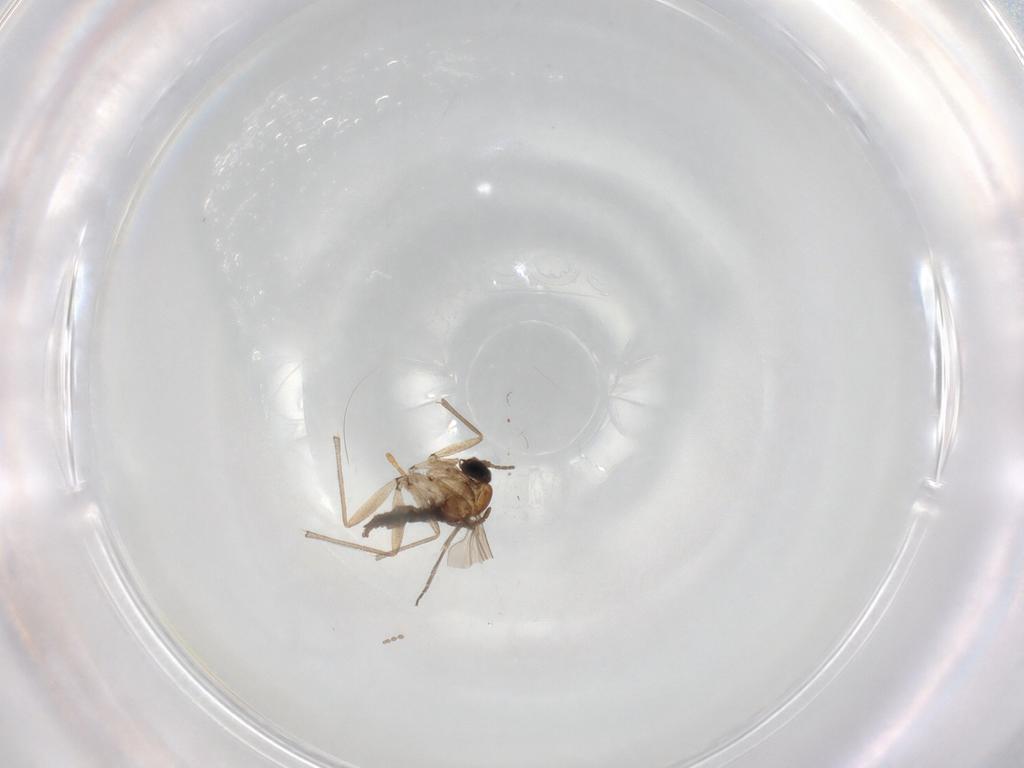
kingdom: Animalia
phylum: Arthropoda
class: Insecta
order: Diptera
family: Sciaridae
